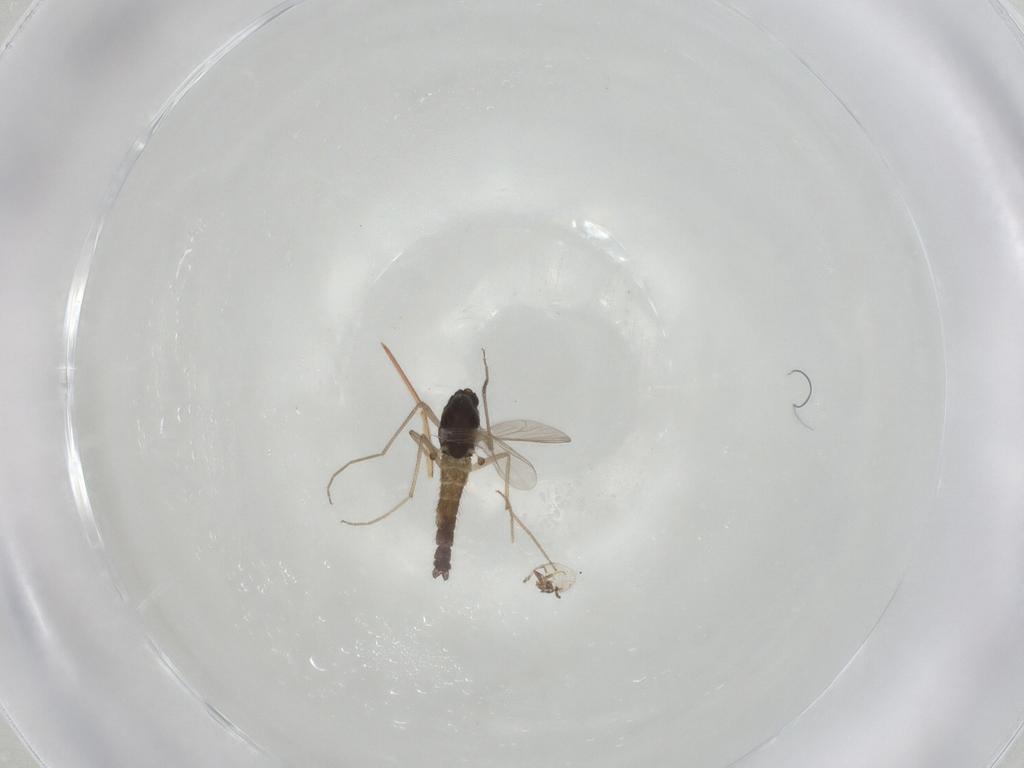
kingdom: Animalia
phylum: Arthropoda
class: Insecta
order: Diptera
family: Chironomidae
